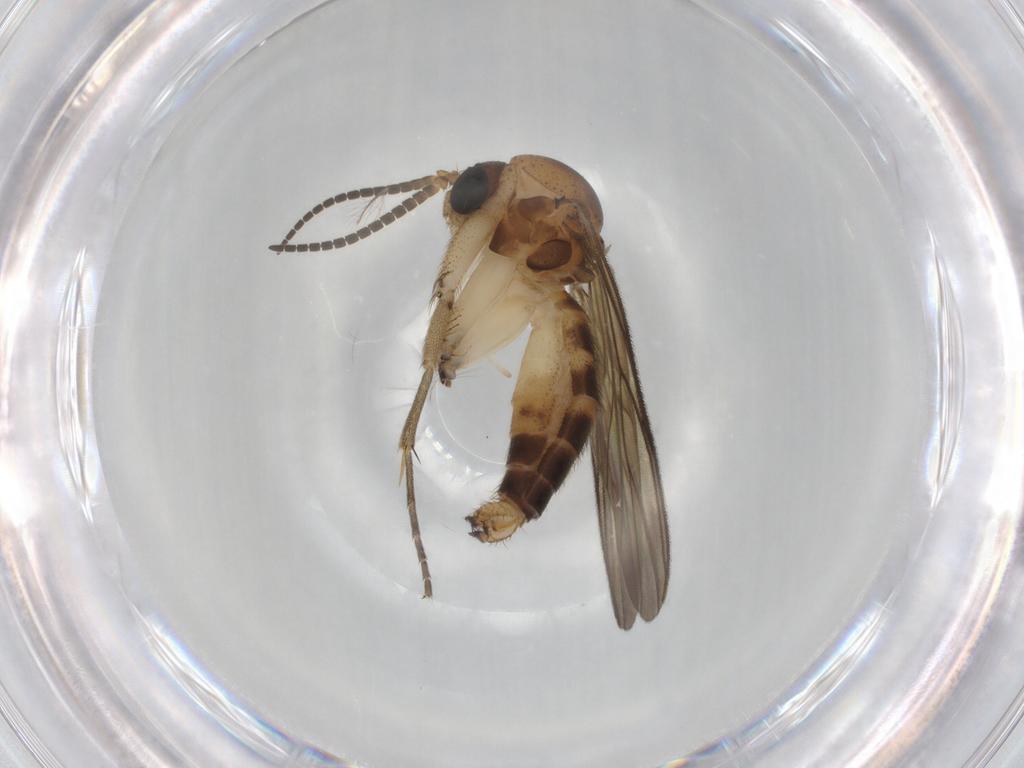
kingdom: Animalia
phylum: Arthropoda
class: Insecta
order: Diptera
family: Mycetophilidae
